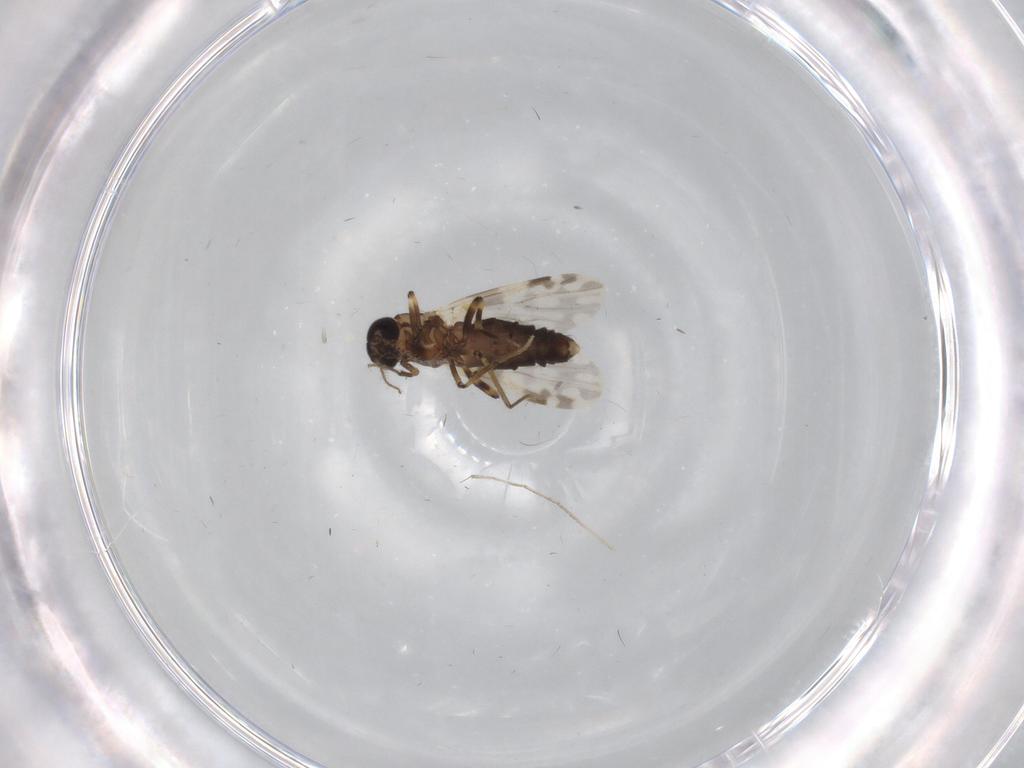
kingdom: Animalia
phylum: Arthropoda
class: Insecta
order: Diptera
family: Ceratopogonidae
